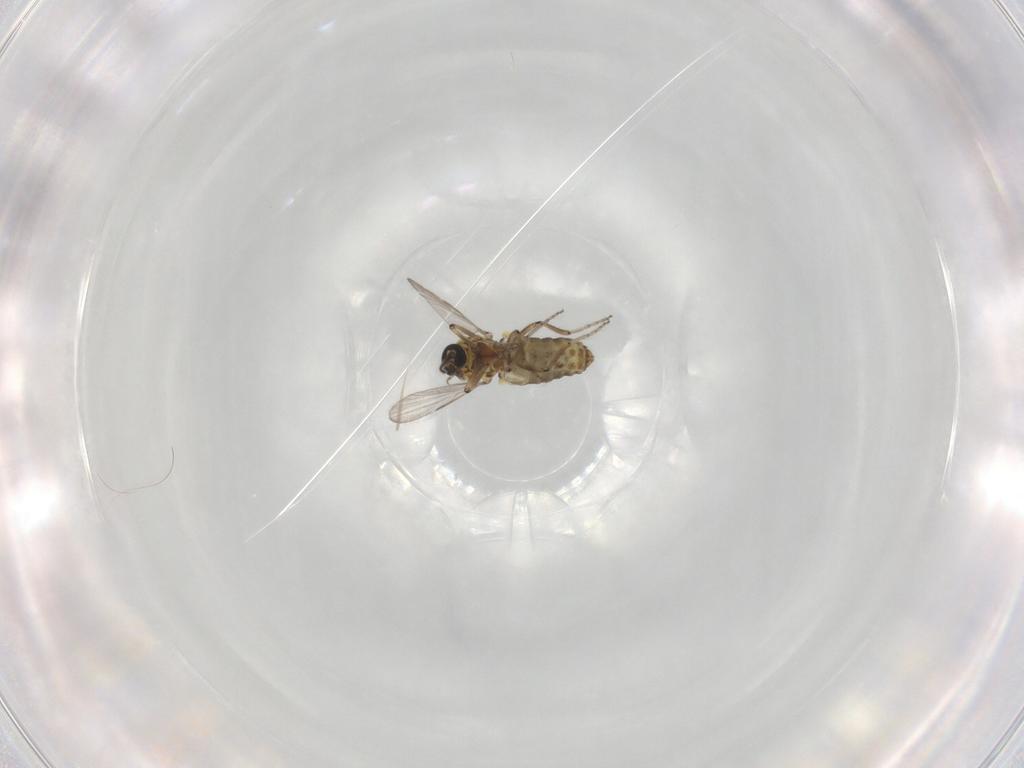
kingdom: Animalia
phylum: Arthropoda
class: Insecta
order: Diptera
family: Ceratopogonidae
